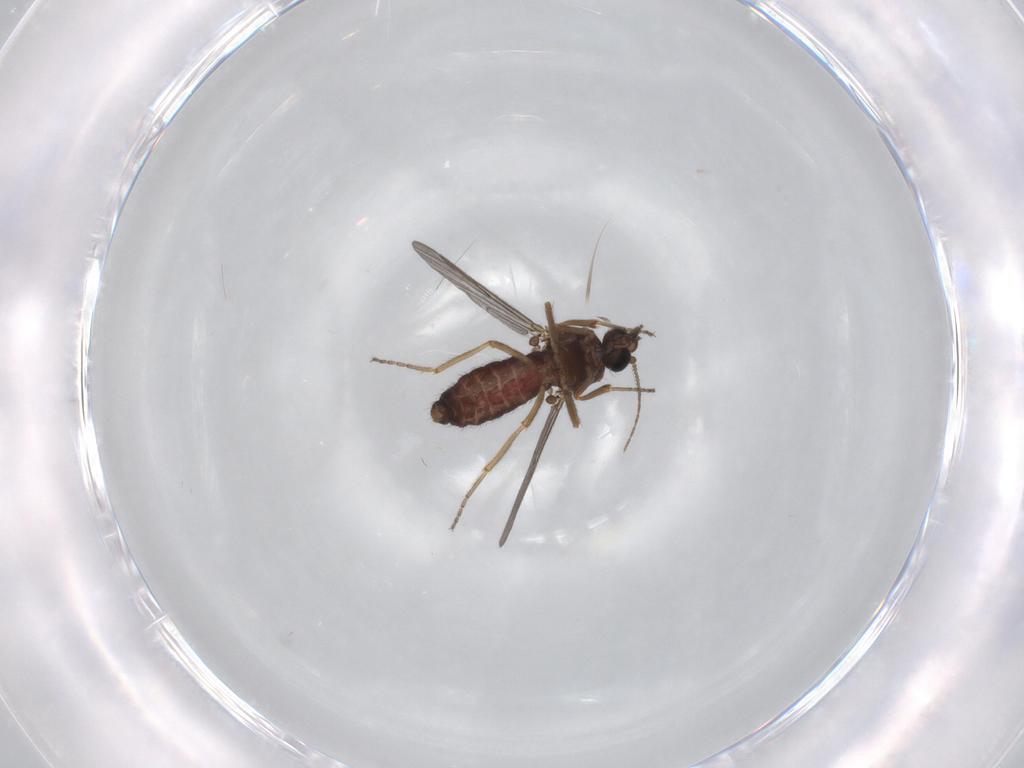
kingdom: Animalia
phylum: Arthropoda
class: Insecta
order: Diptera
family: Ceratopogonidae
